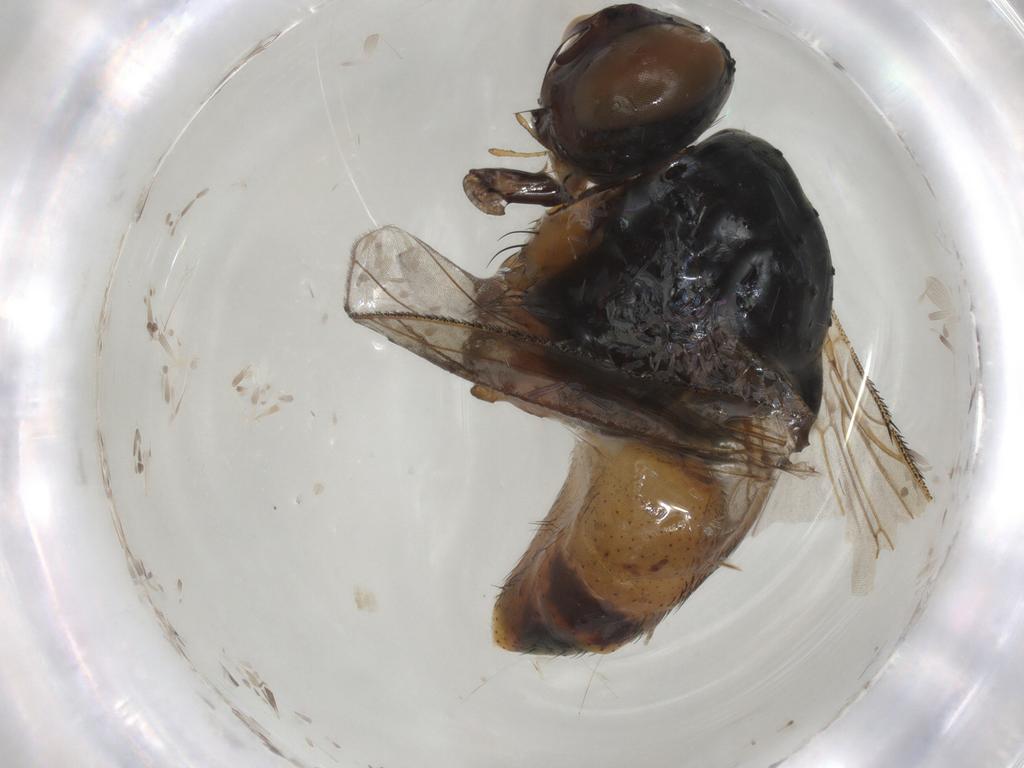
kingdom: Animalia
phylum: Arthropoda
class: Insecta
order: Diptera
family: Muscidae
